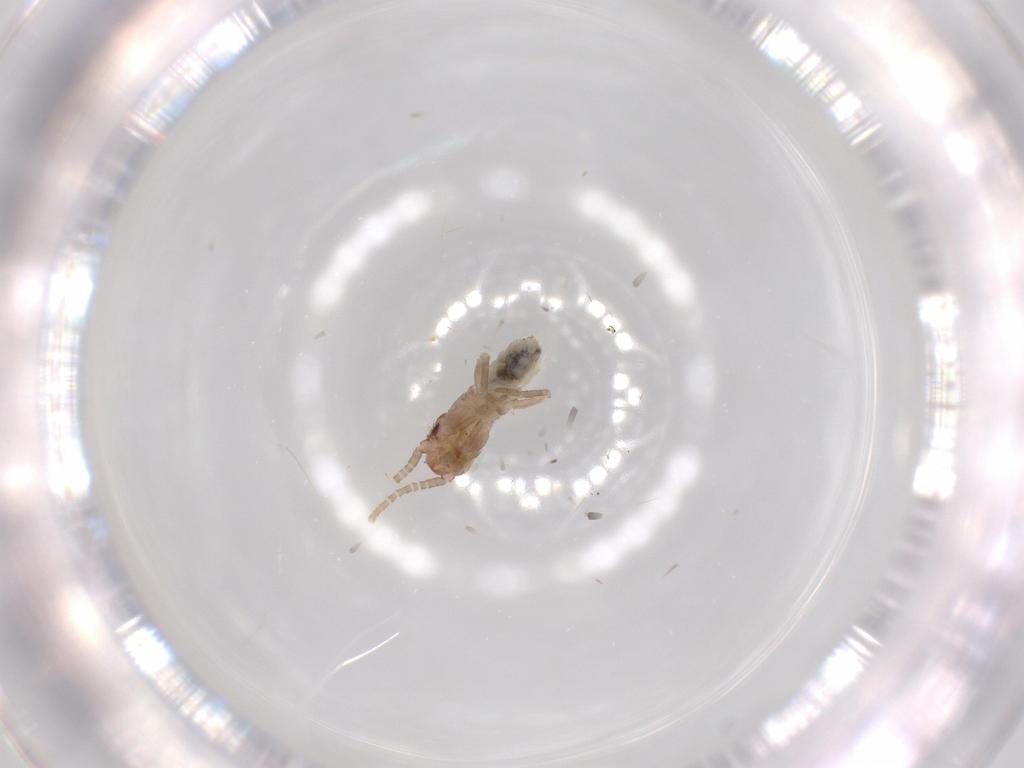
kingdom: Animalia
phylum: Arthropoda
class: Insecta
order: Orthoptera
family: Mogoplistidae
